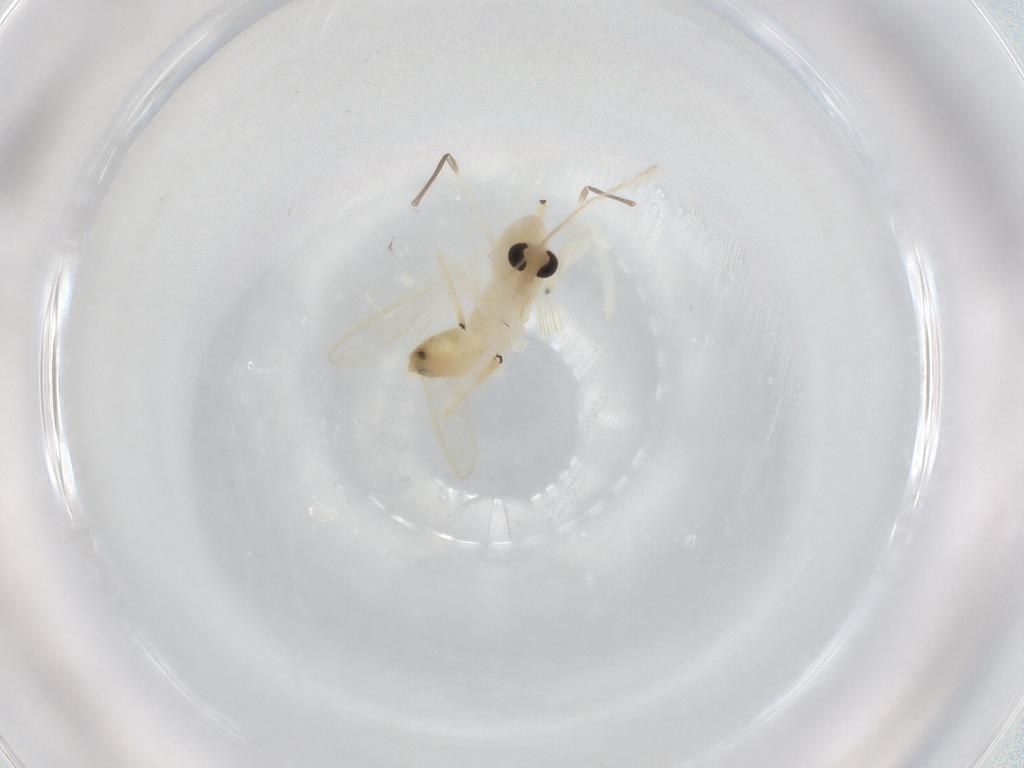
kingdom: Animalia
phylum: Arthropoda
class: Insecta
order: Diptera
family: Chironomidae
